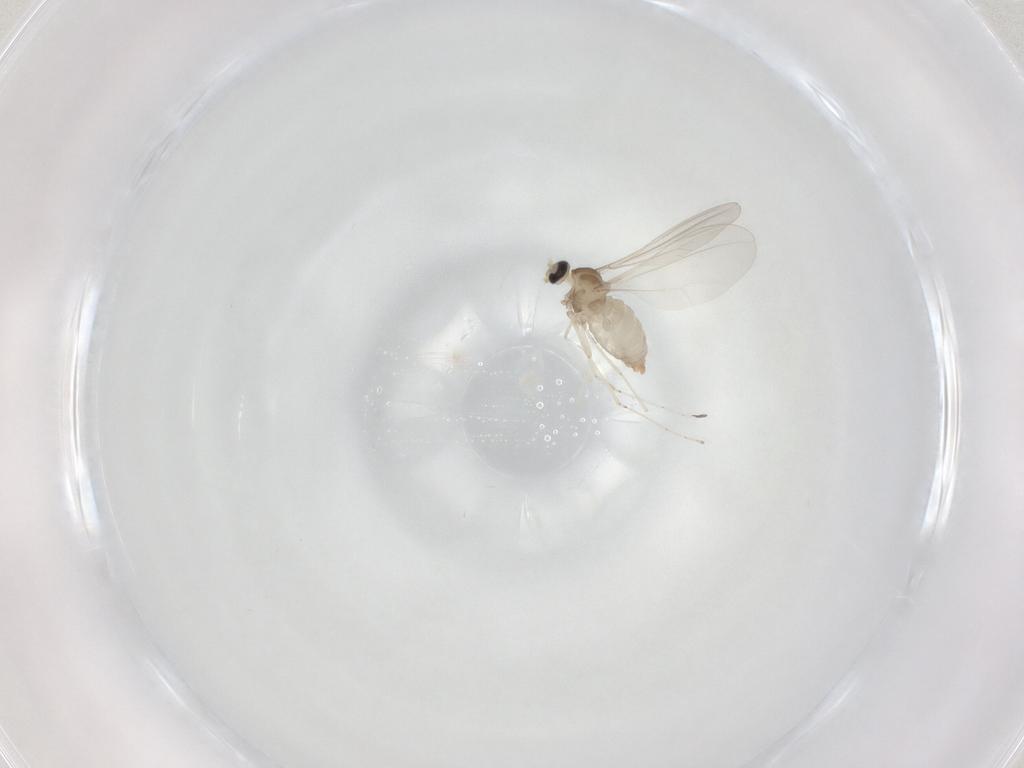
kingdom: Animalia
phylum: Arthropoda
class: Insecta
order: Diptera
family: Cecidomyiidae
